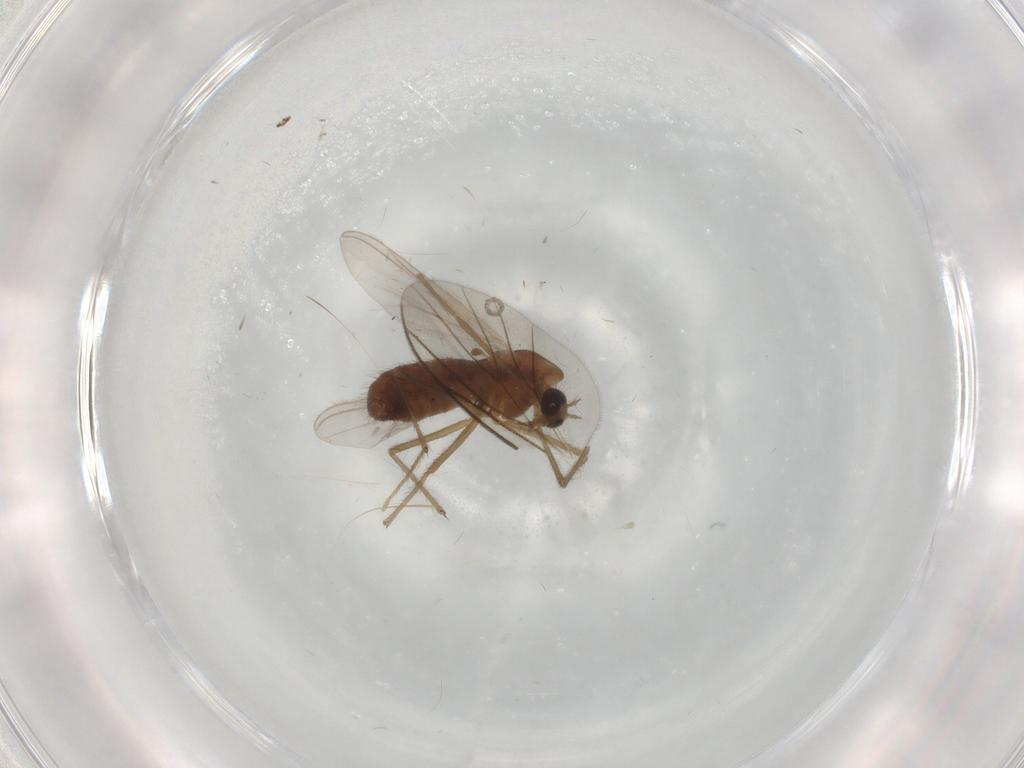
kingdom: Animalia
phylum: Arthropoda
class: Insecta
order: Diptera
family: Chironomidae
